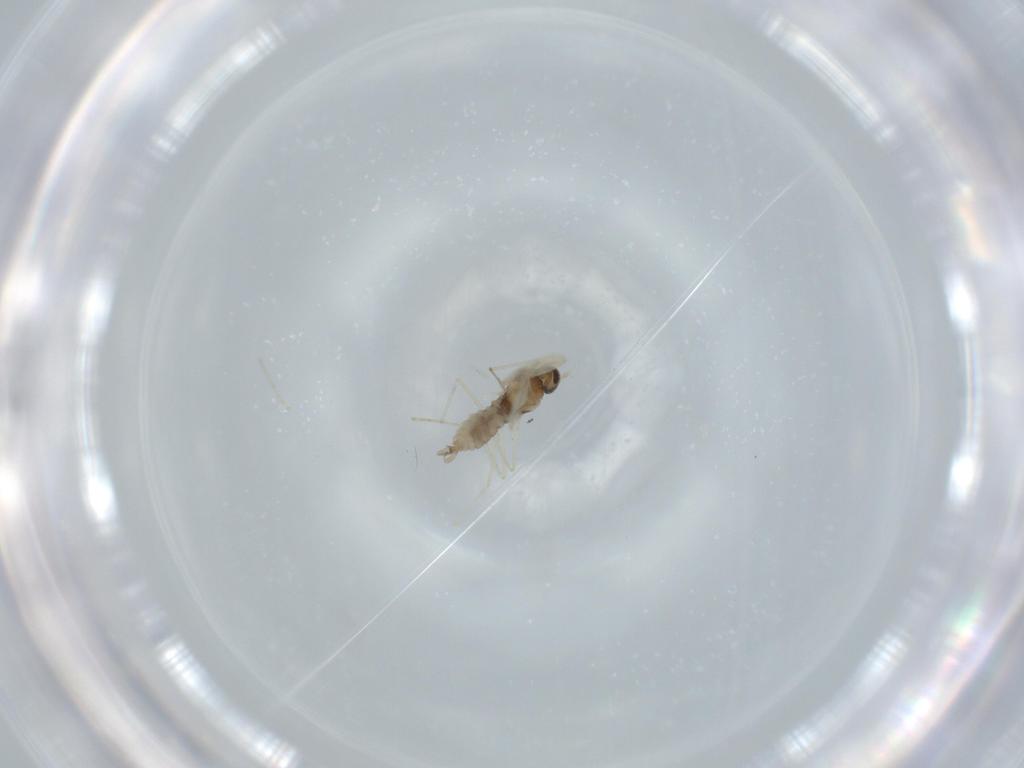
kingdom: Animalia
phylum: Arthropoda
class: Insecta
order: Diptera
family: Cecidomyiidae
